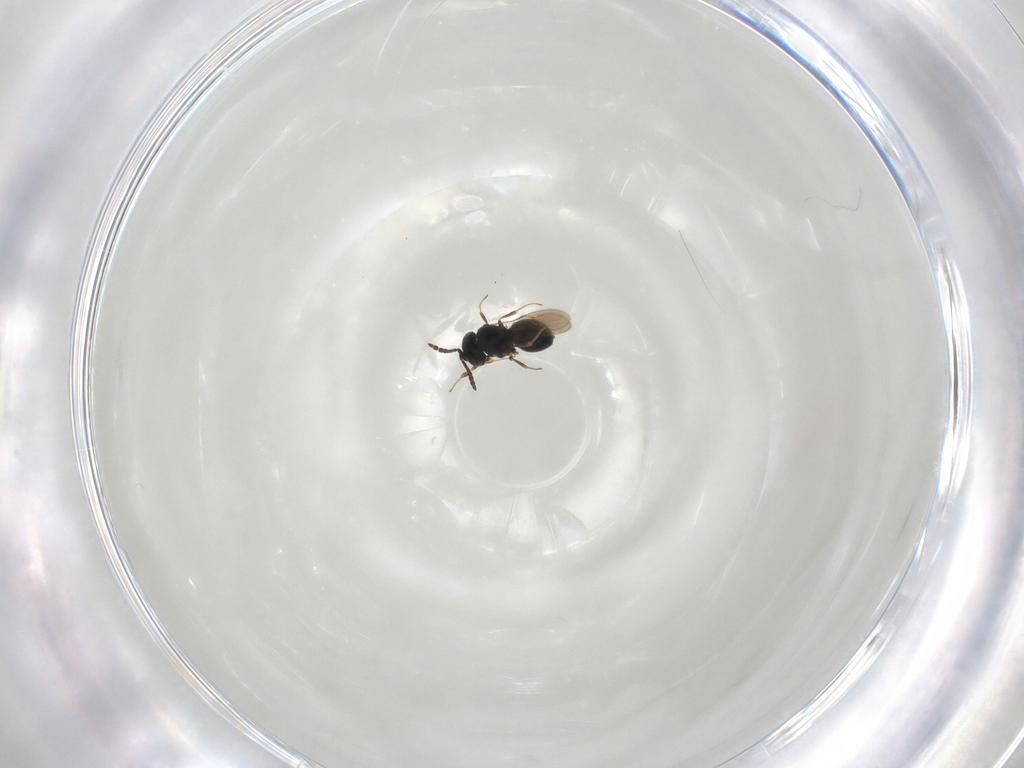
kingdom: Animalia
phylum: Arthropoda
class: Insecta
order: Hymenoptera
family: Scelionidae
